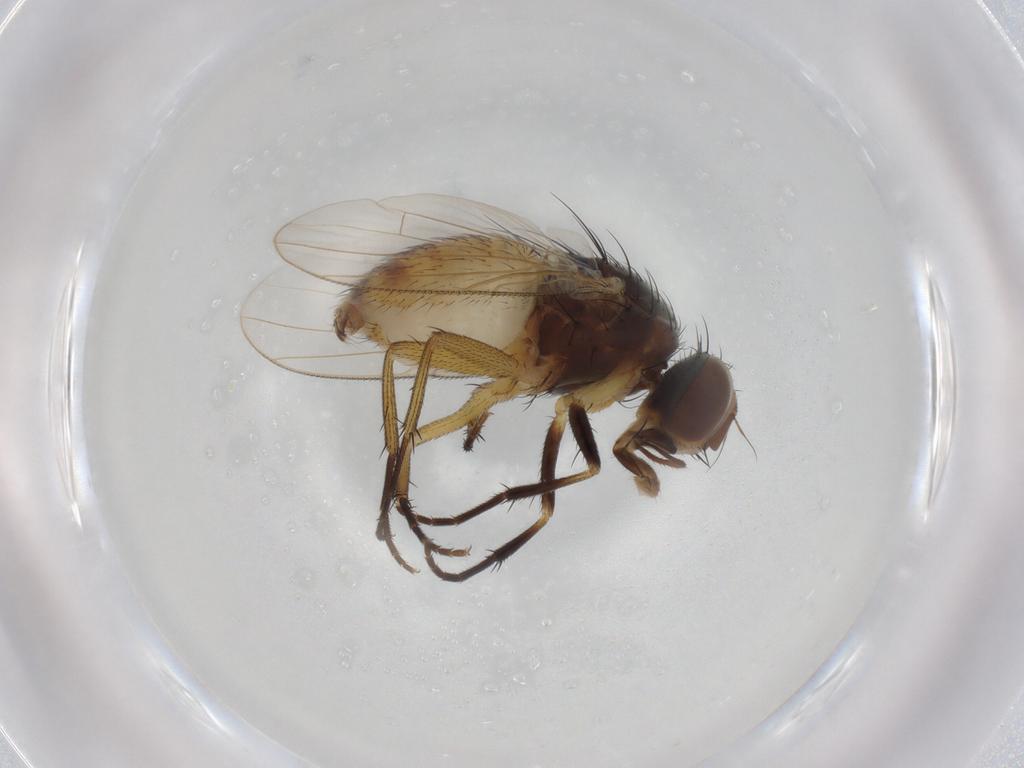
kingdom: Animalia
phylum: Arthropoda
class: Insecta
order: Diptera
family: Muscidae
